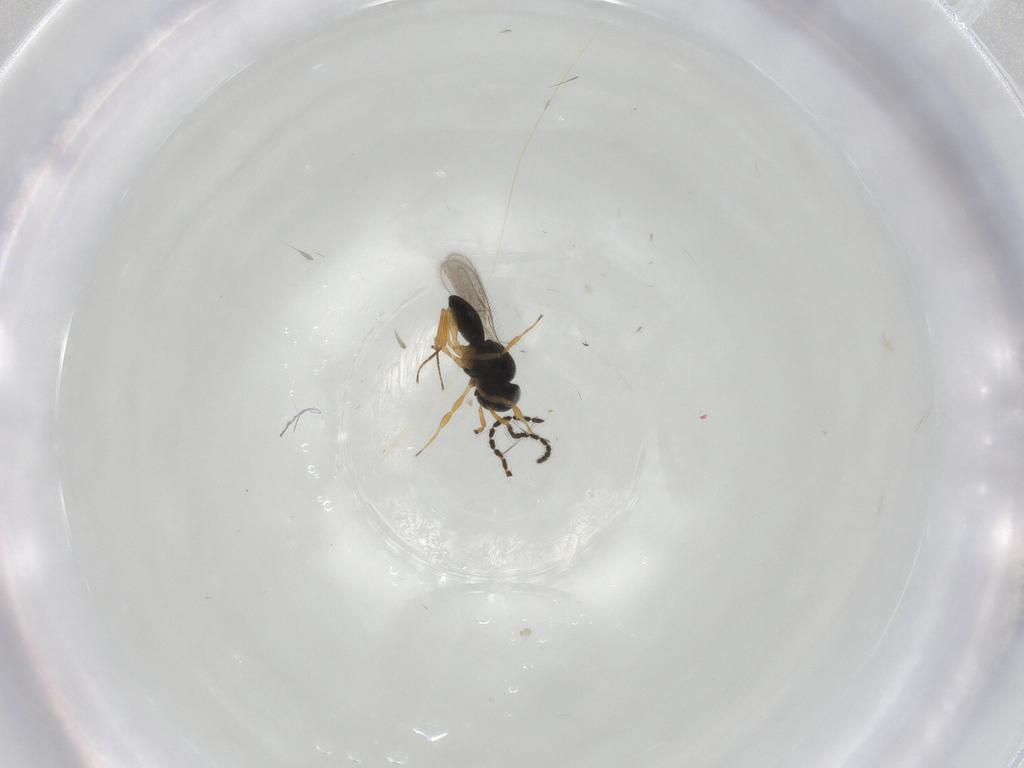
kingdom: Animalia
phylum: Arthropoda
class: Insecta
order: Hymenoptera
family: Scelionidae
